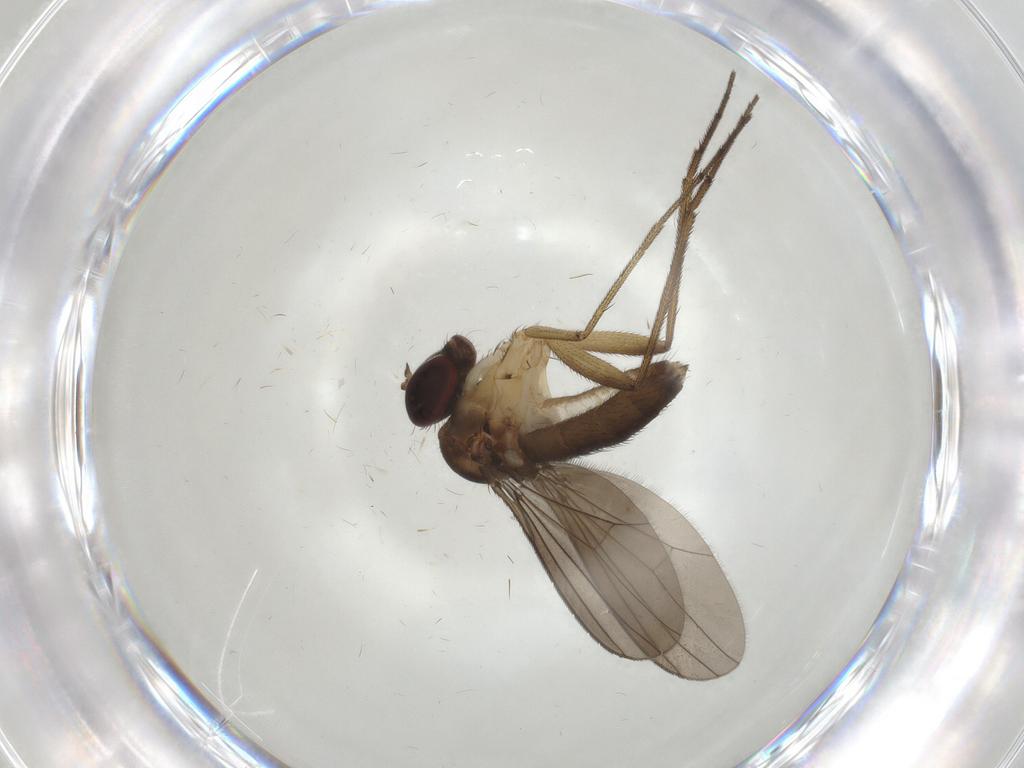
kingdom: Animalia
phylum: Arthropoda
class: Insecta
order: Diptera
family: Dolichopodidae
